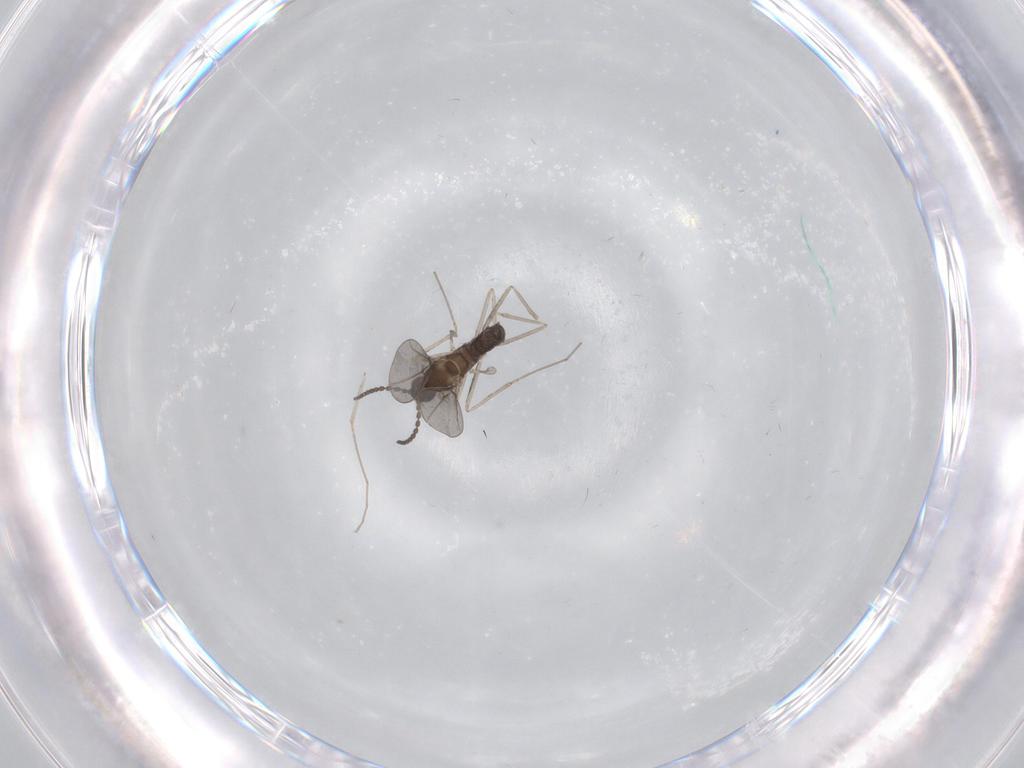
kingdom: Animalia
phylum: Arthropoda
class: Insecta
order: Diptera
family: Cecidomyiidae
